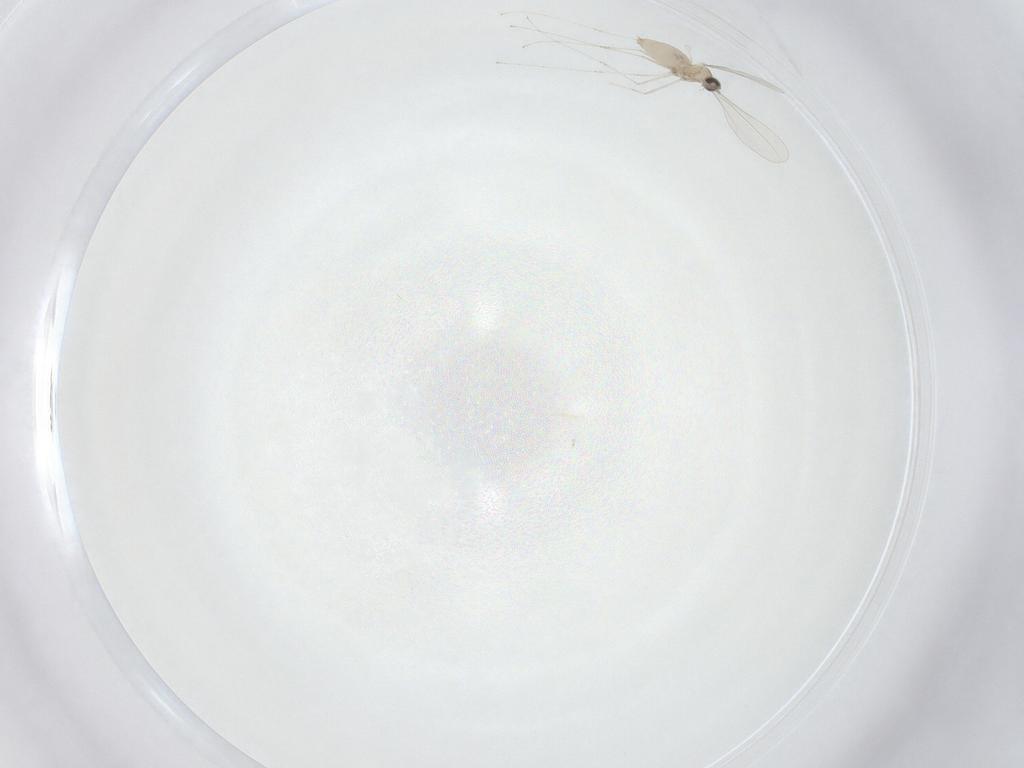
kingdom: Animalia
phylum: Arthropoda
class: Insecta
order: Diptera
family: Cecidomyiidae
